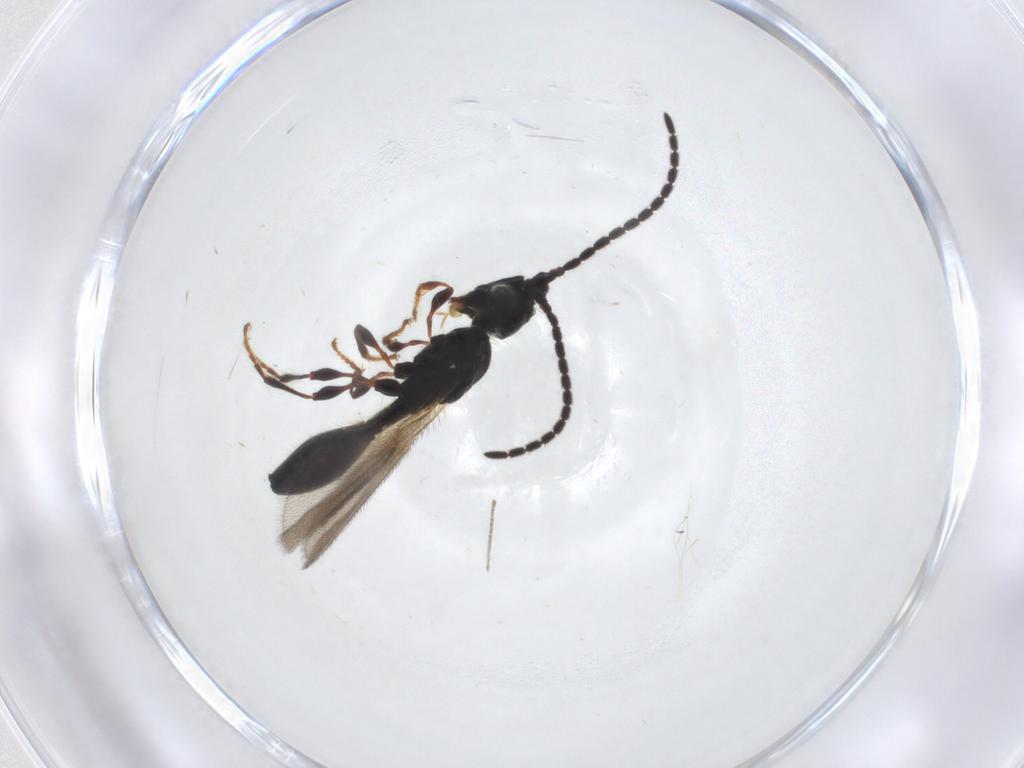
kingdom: Animalia
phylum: Arthropoda
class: Insecta
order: Hymenoptera
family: Diapriidae
